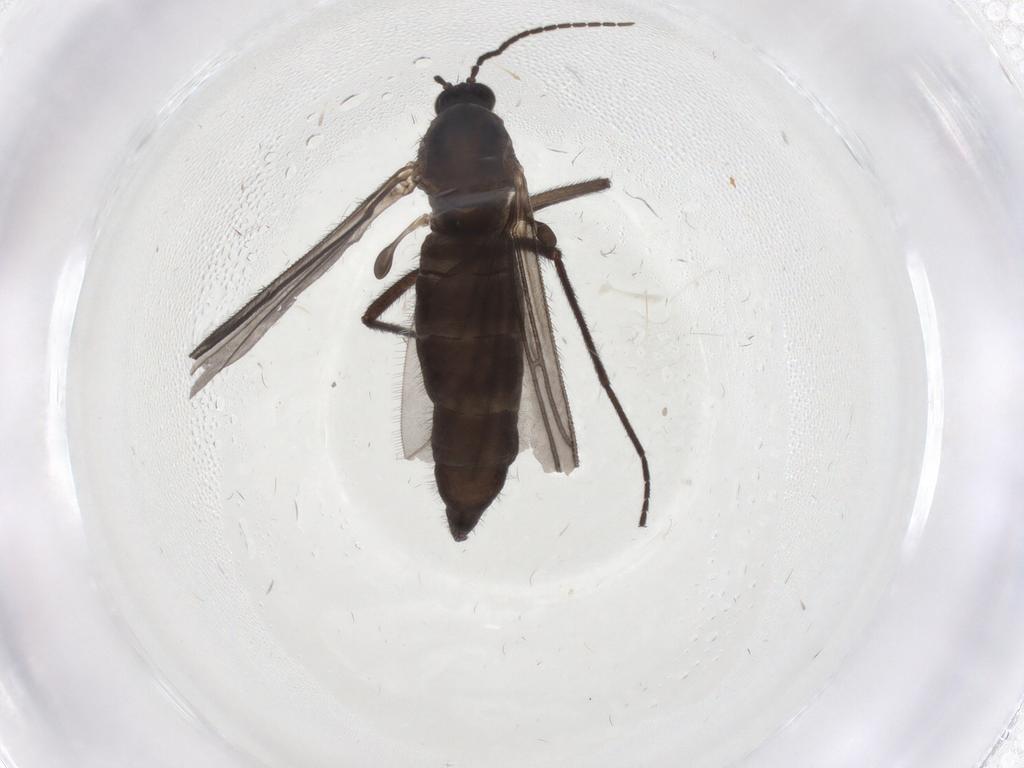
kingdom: Animalia
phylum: Arthropoda
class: Insecta
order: Diptera
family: Sciaridae
